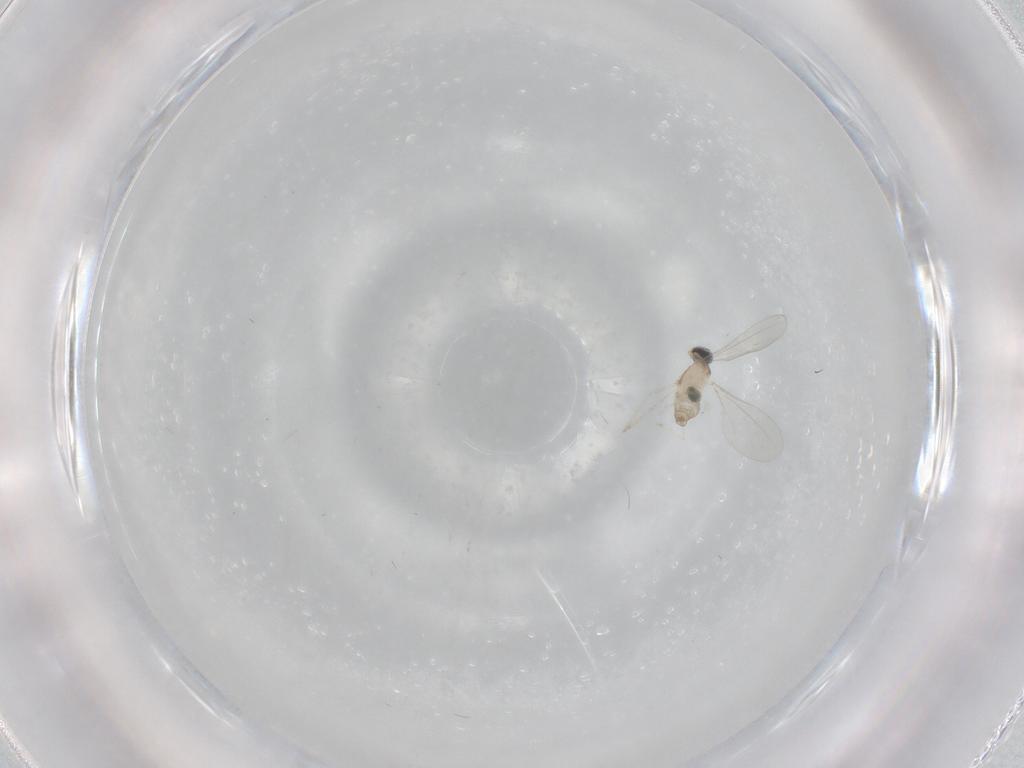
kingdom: Animalia
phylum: Arthropoda
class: Insecta
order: Diptera
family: Cecidomyiidae
